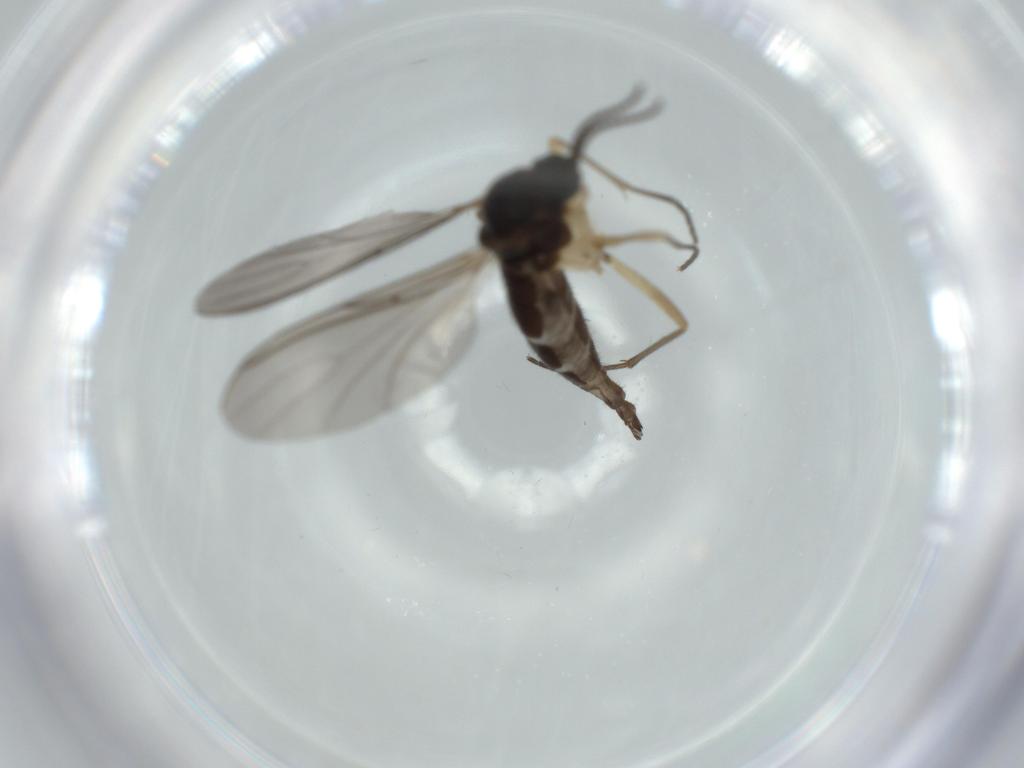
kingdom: Animalia
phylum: Arthropoda
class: Insecta
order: Diptera
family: Sciaridae
